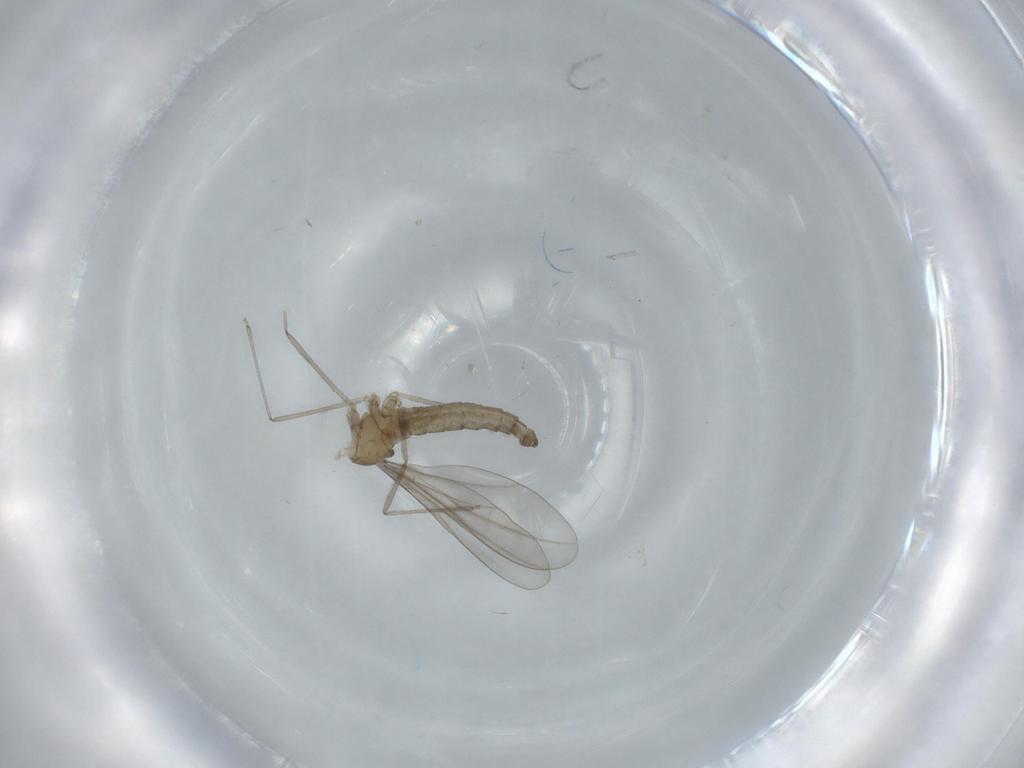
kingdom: Animalia
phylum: Arthropoda
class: Insecta
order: Diptera
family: Cecidomyiidae
